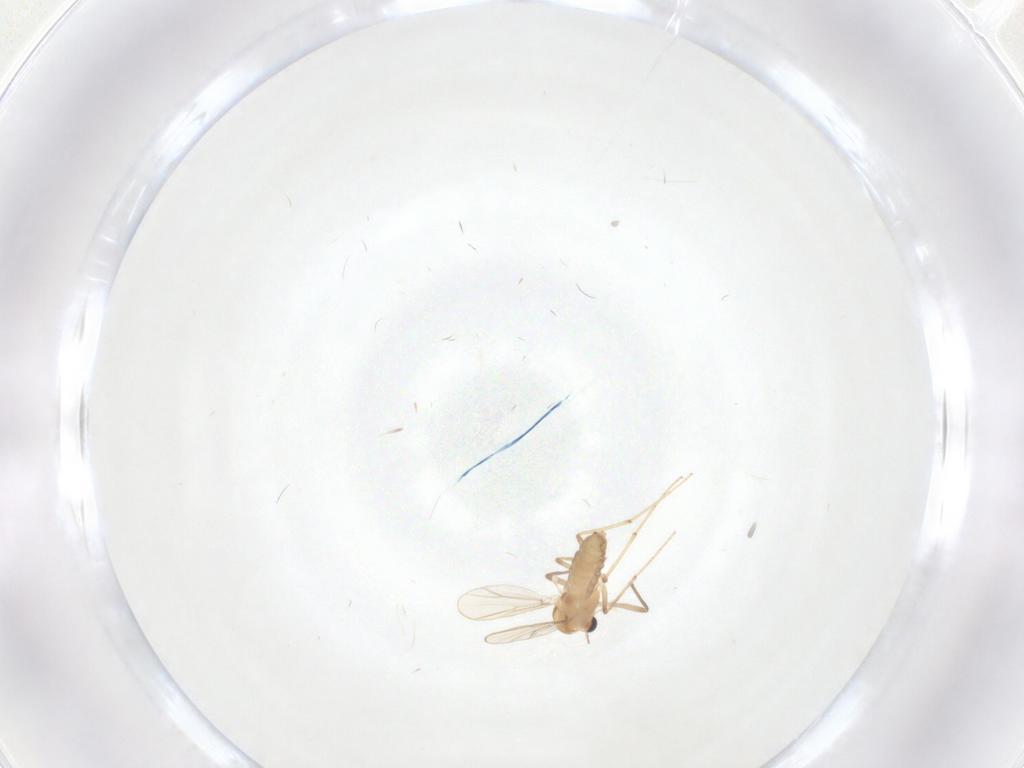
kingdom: Animalia
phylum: Arthropoda
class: Insecta
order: Diptera
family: Chironomidae
